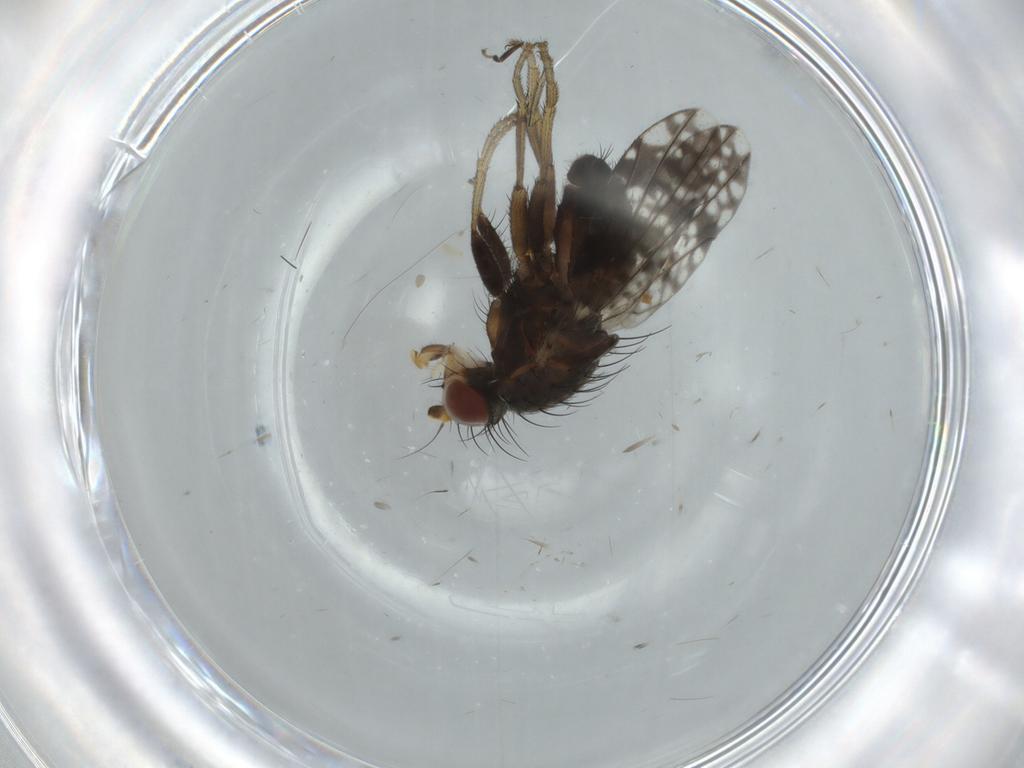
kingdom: Animalia
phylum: Arthropoda
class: Insecta
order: Diptera
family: Tephritidae
